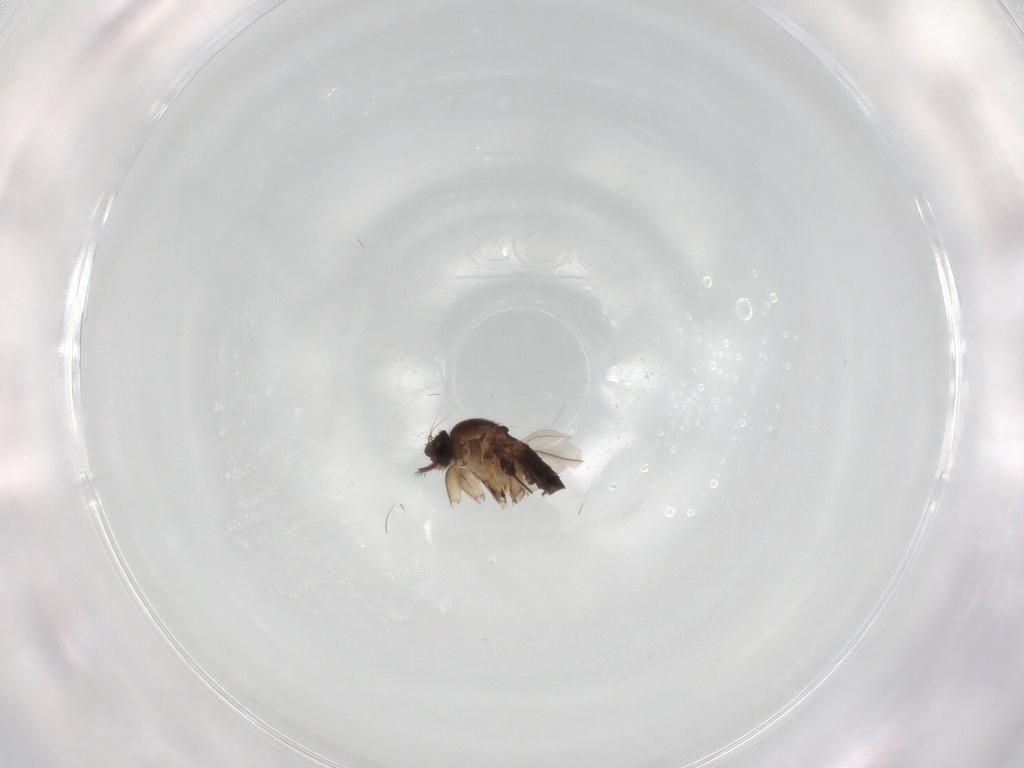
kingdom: Animalia
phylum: Arthropoda
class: Insecta
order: Diptera
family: Phoridae
